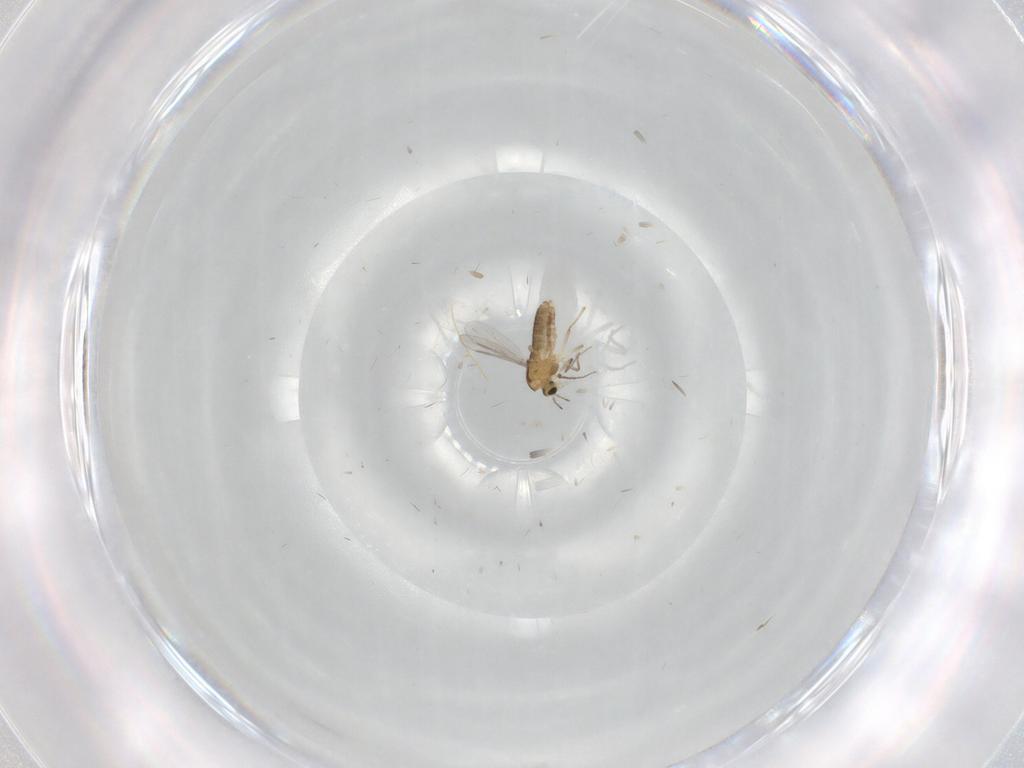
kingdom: Animalia
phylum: Arthropoda
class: Insecta
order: Diptera
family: Chironomidae
